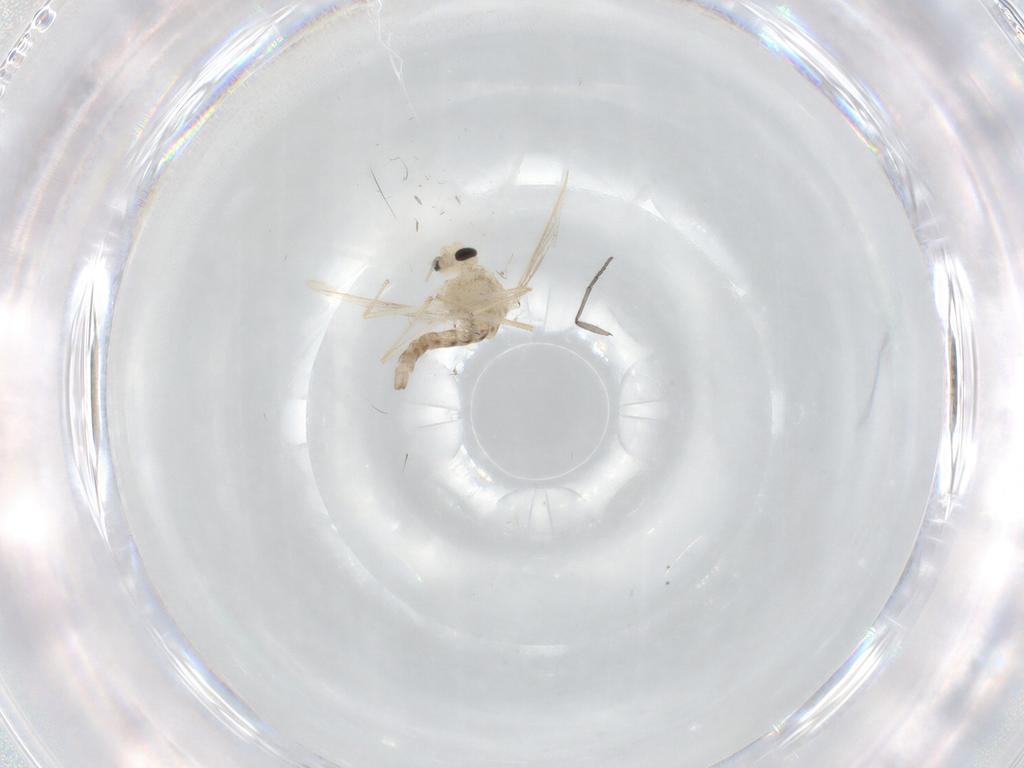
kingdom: Animalia
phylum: Arthropoda
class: Insecta
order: Diptera
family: Chironomidae
